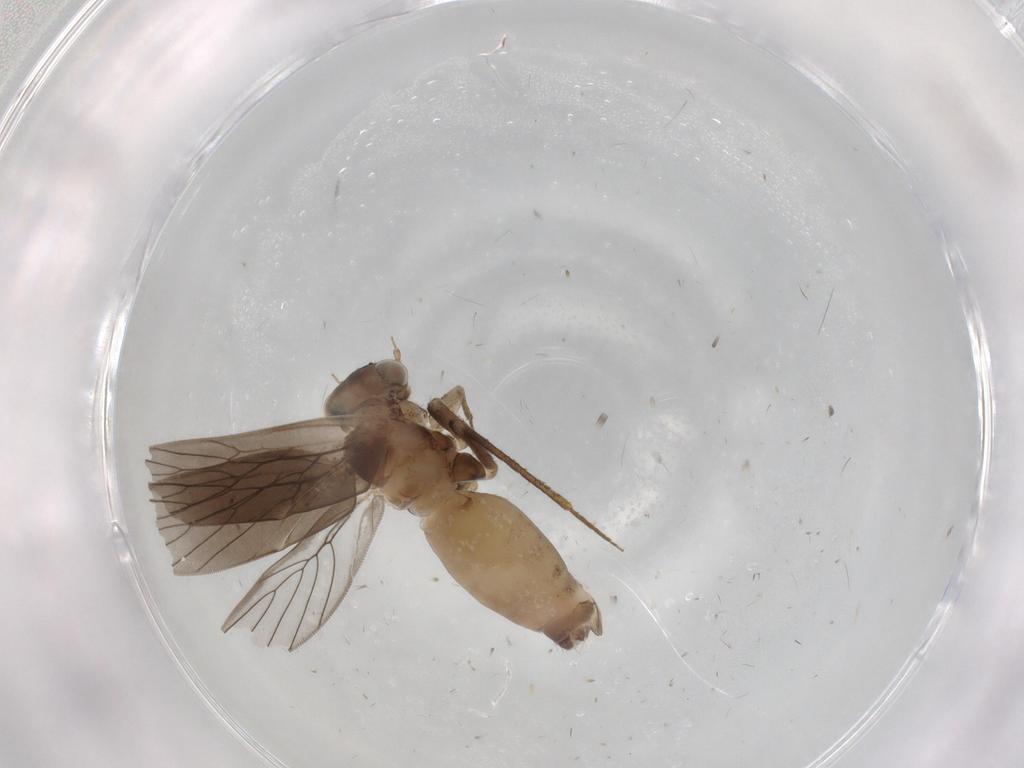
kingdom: Animalia
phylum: Arthropoda
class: Insecta
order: Psocodea
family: Lepidopsocidae
